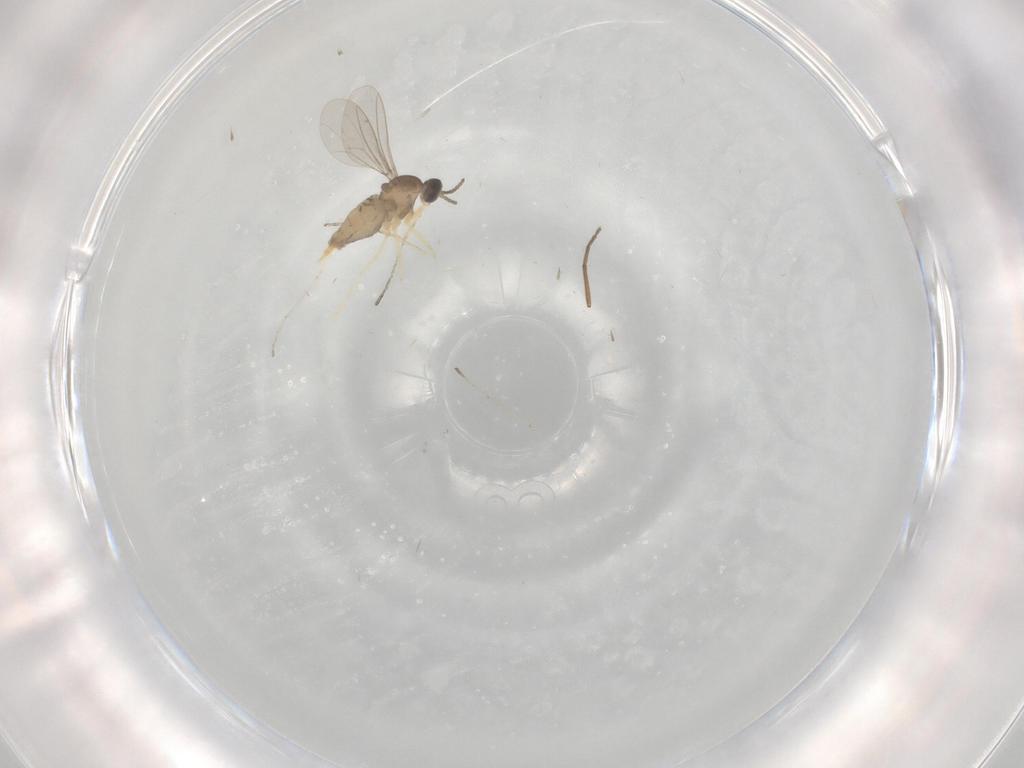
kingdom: Animalia
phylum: Arthropoda
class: Insecta
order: Diptera
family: Chironomidae
